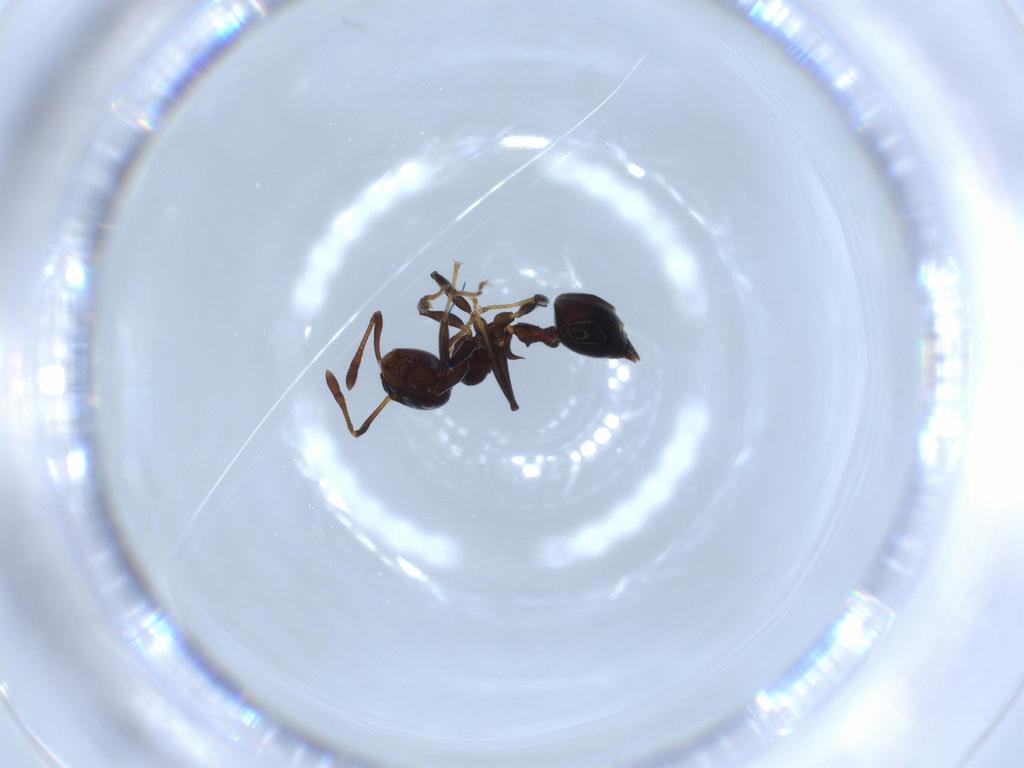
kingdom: Animalia
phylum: Arthropoda
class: Insecta
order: Hymenoptera
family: Formicidae
